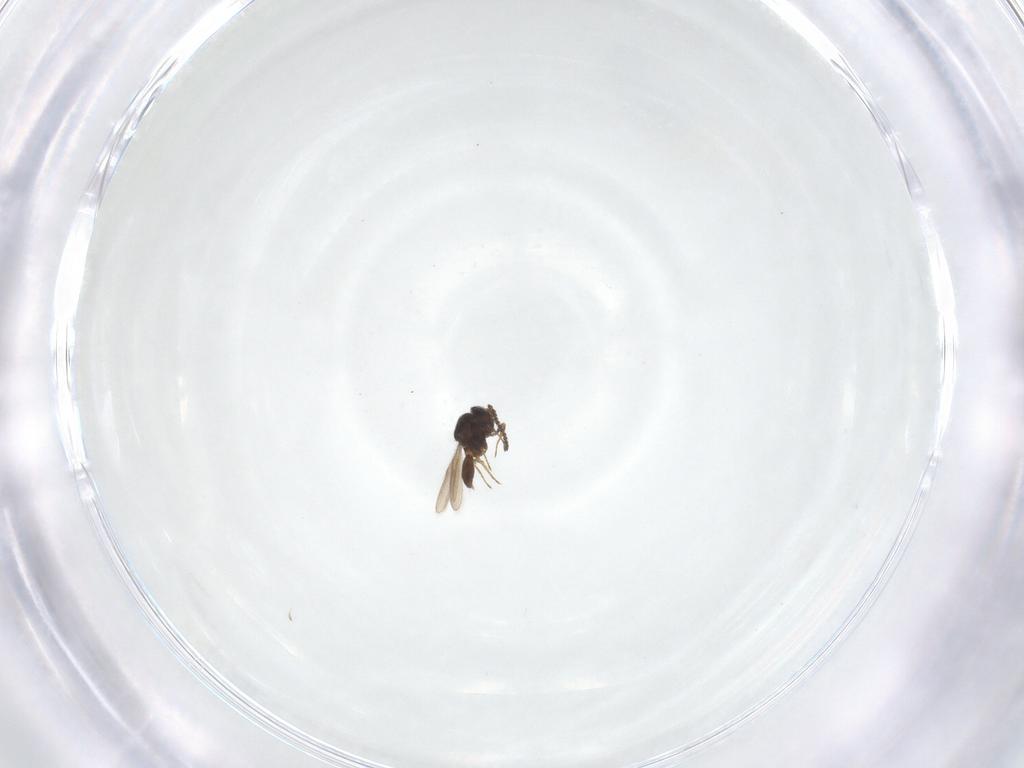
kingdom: Animalia
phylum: Arthropoda
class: Insecta
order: Hymenoptera
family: Scelionidae
